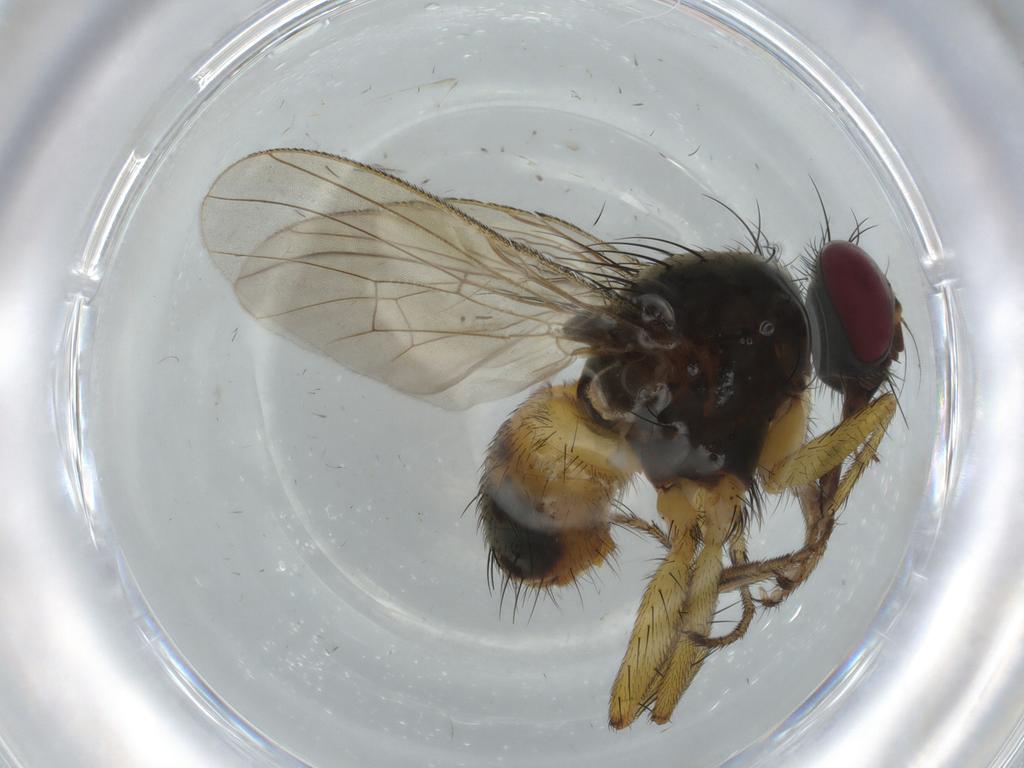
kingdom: Animalia
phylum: Arthropoda
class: Insecta
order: Diptera
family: Muscidae
